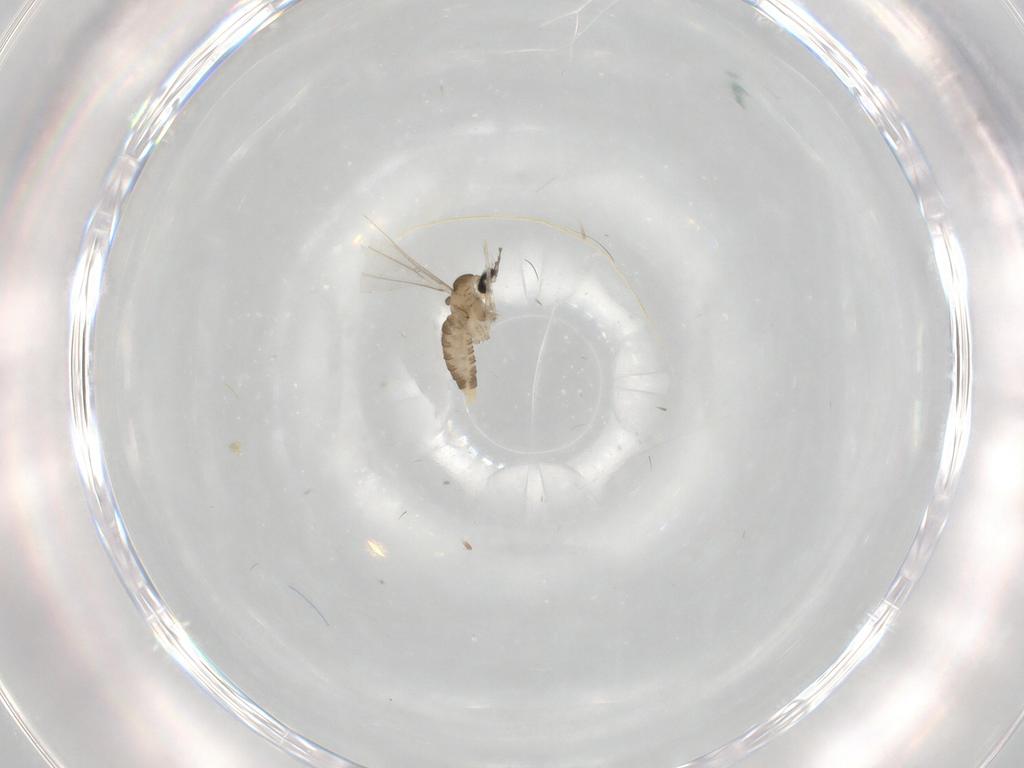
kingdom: Animalia
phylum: Arthropoda
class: Insecta
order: Diptera
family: Cecidomyiidae
